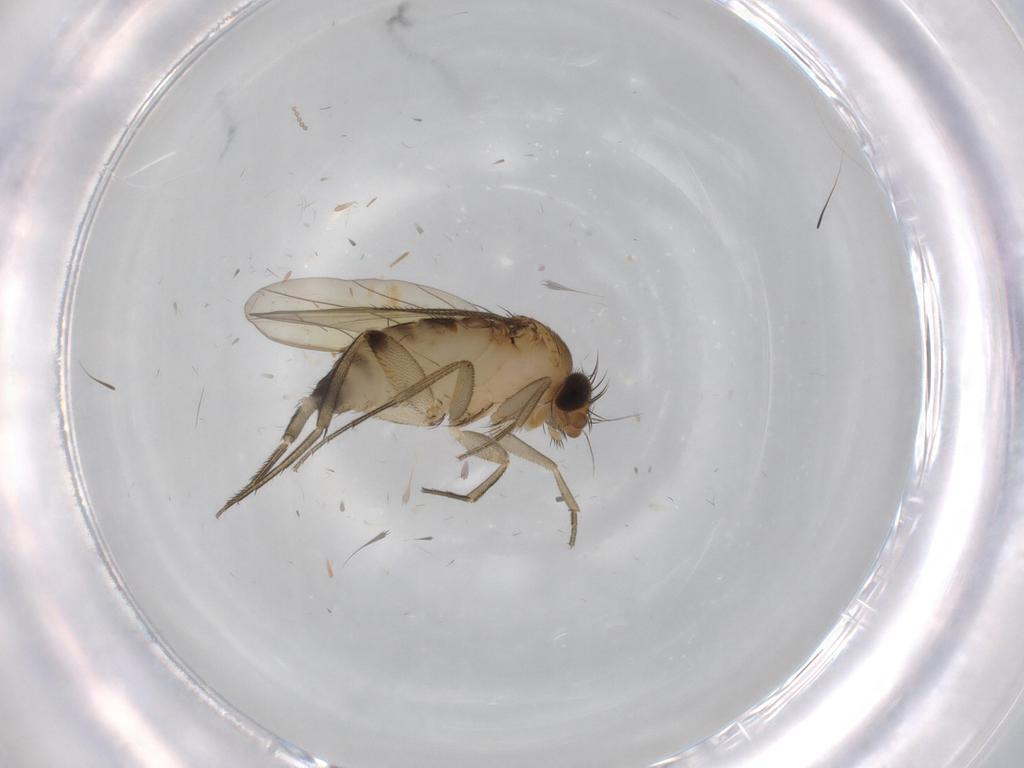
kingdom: Animalia
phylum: Arthropoda
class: Insecta
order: Diptera
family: Phoridae
